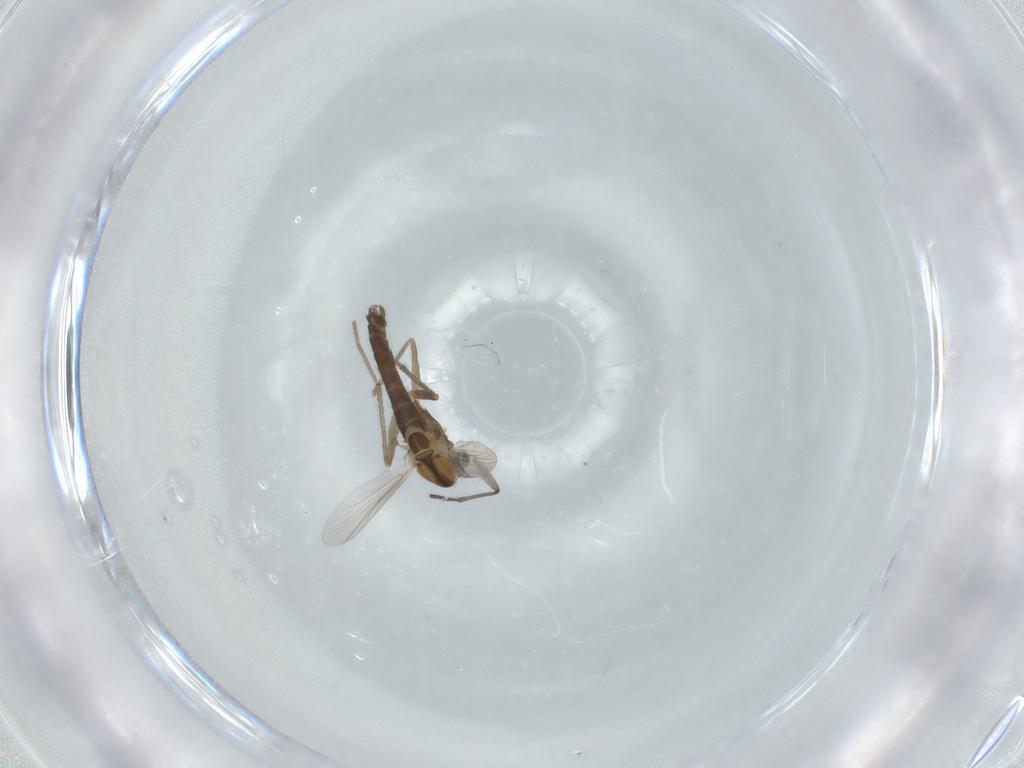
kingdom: Animalia
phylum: Arthropoda
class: Insecta
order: Diptera
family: Chironomidae
